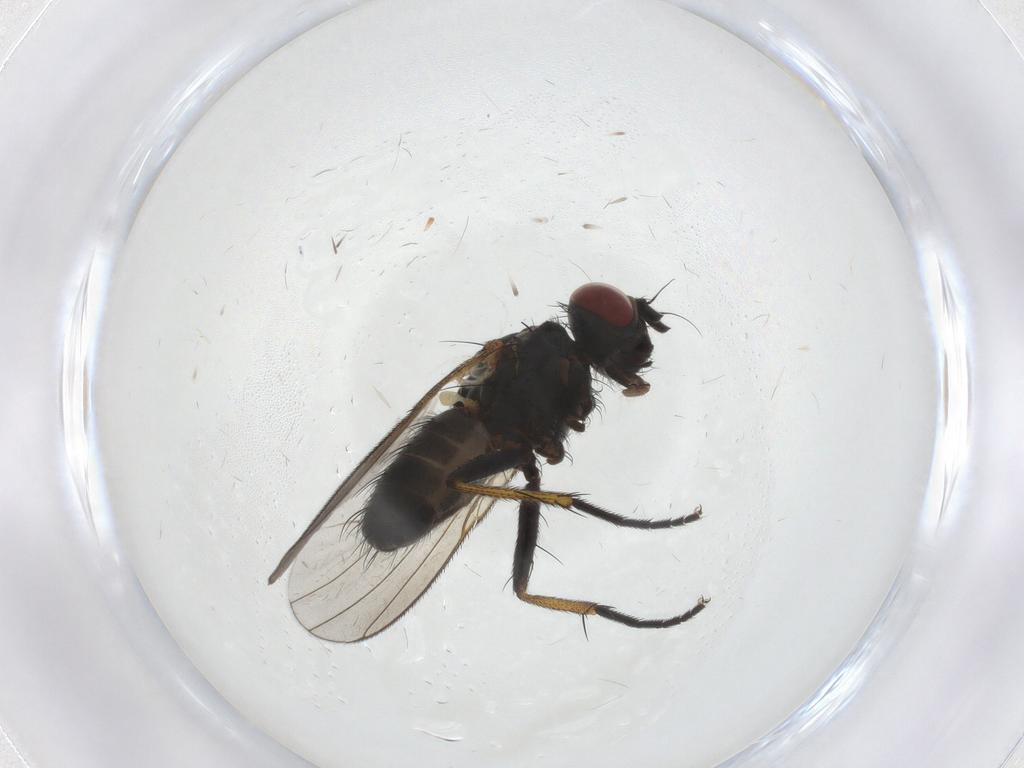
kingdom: Animalia
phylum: Arthropoda
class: Insecta
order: Diptera
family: Muscidae
